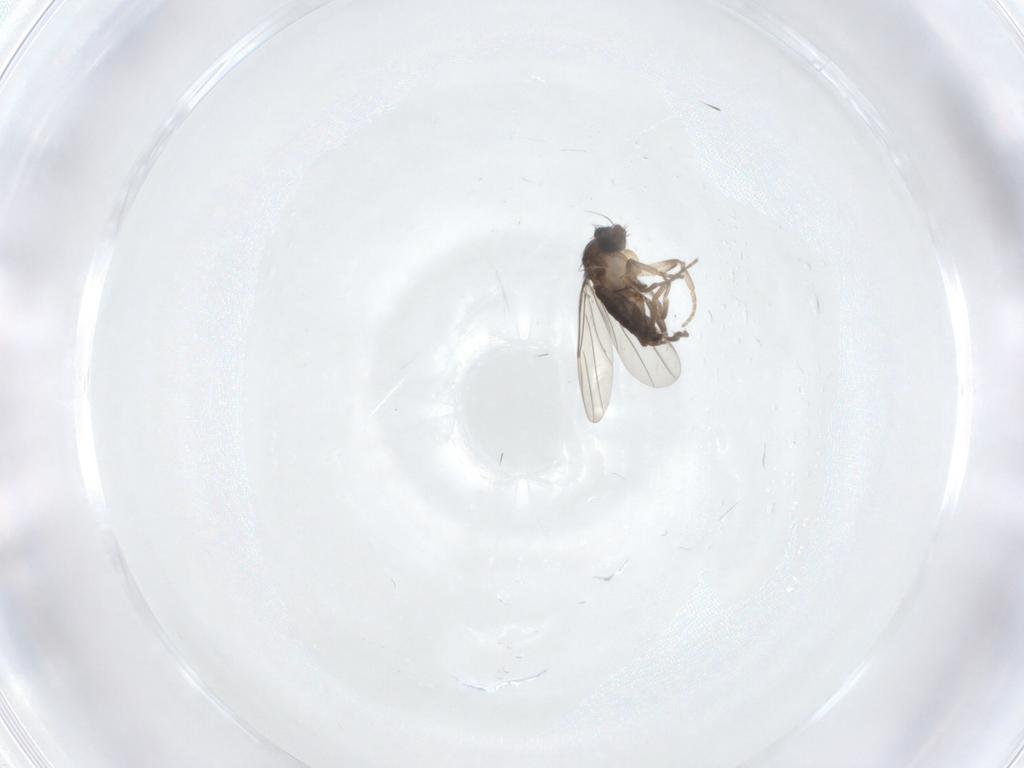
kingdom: Animalia
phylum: Arthropoda
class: Insecta
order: Diptera
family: Phoridae
